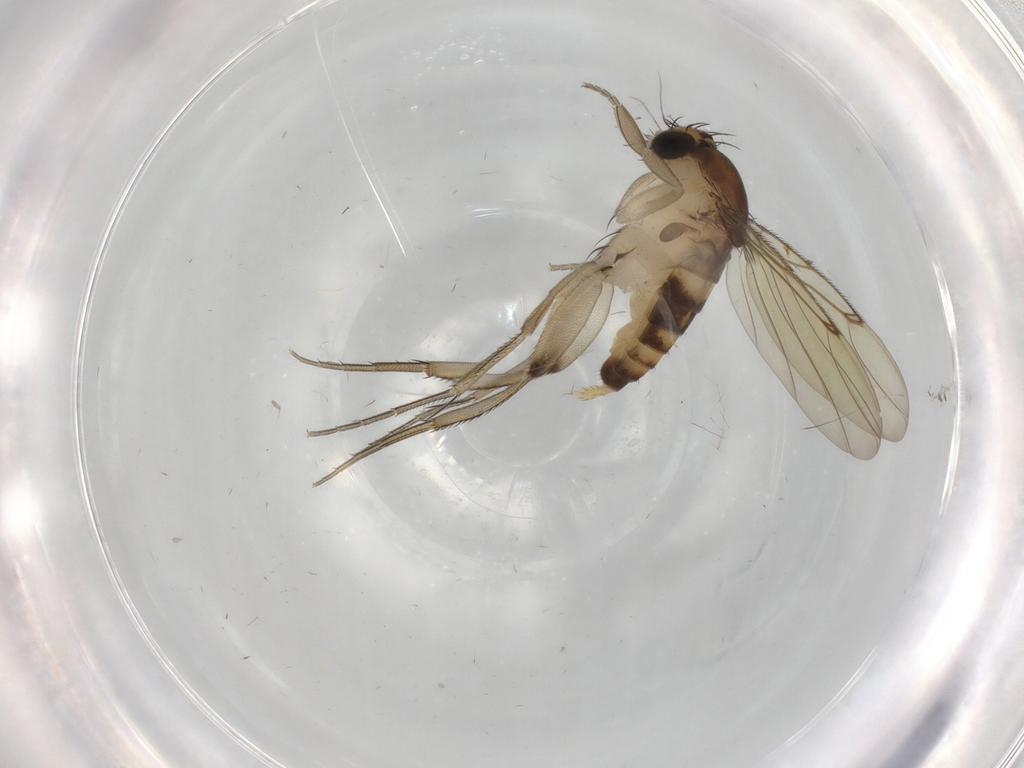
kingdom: Animalia
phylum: Arthropoda
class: Insecta
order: Diptera
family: Phoridae
